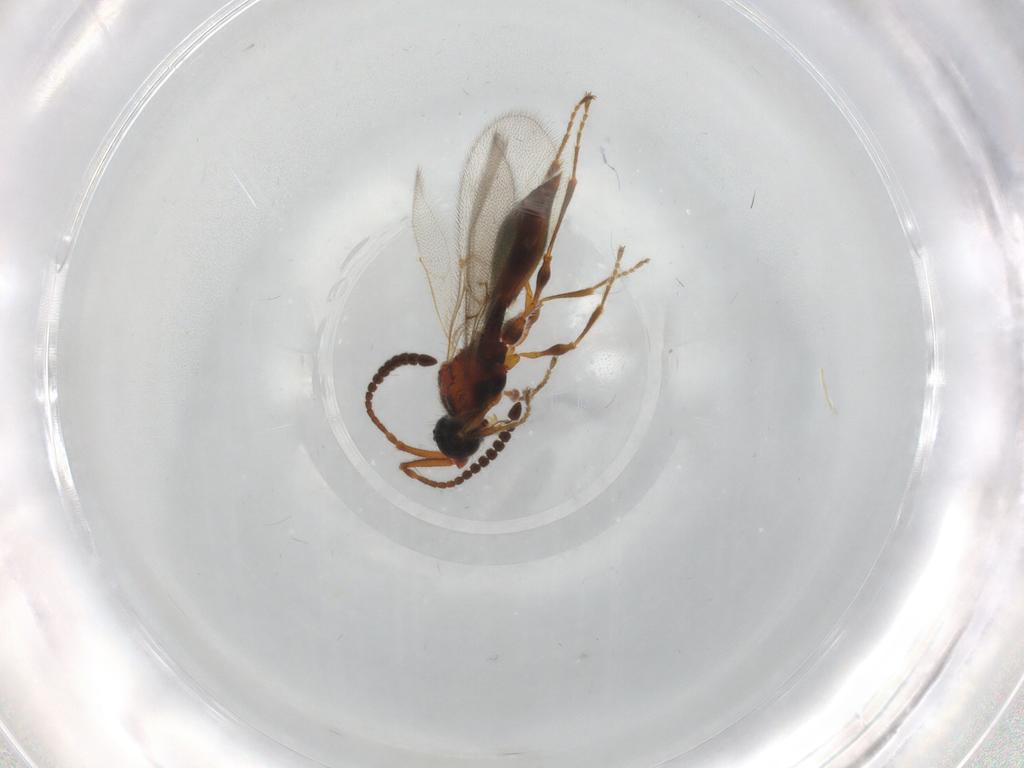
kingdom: Animalia
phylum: Arthropoda
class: Insecta
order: Hymenoptera
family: Diapriidae
